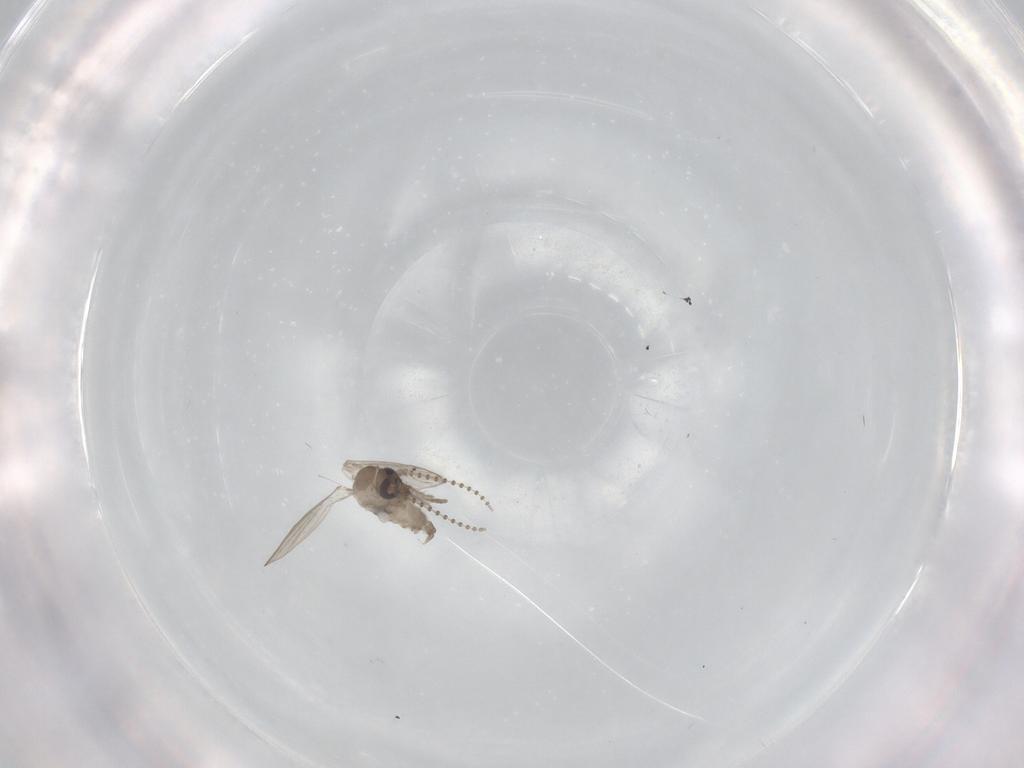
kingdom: Animalia
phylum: Arthropoda
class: Insecta
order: Diptera
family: Psychodidae
